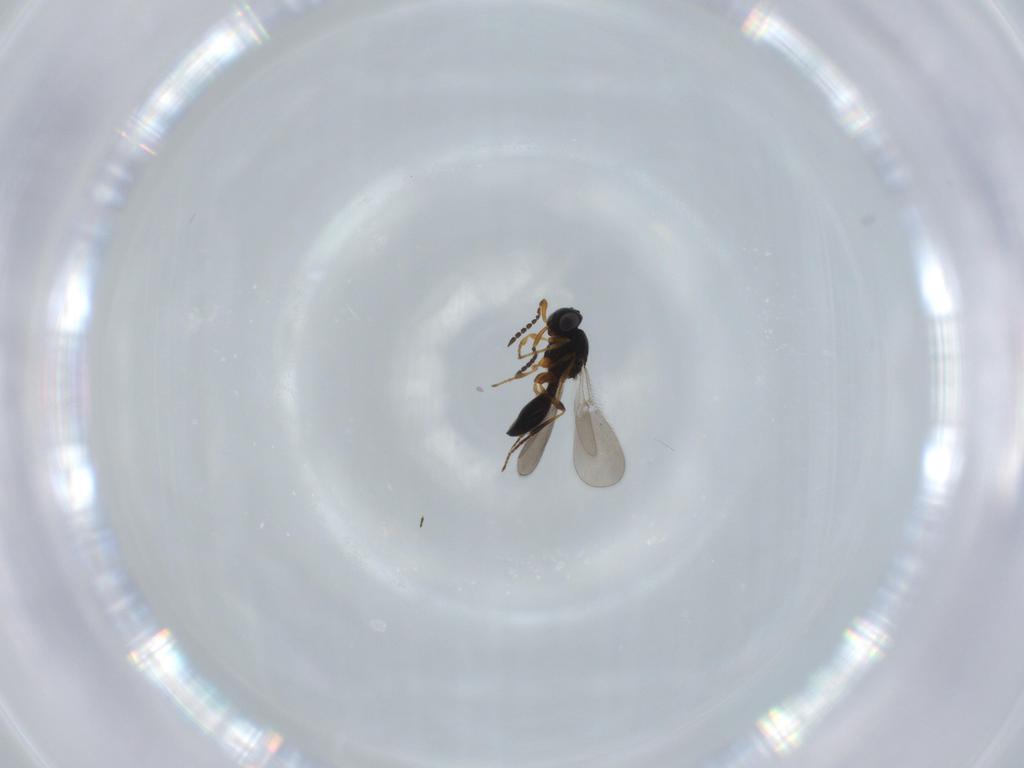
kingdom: Animalia
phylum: Arthropoda
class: Insecta
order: Hymenoptera
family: Platygastridae
